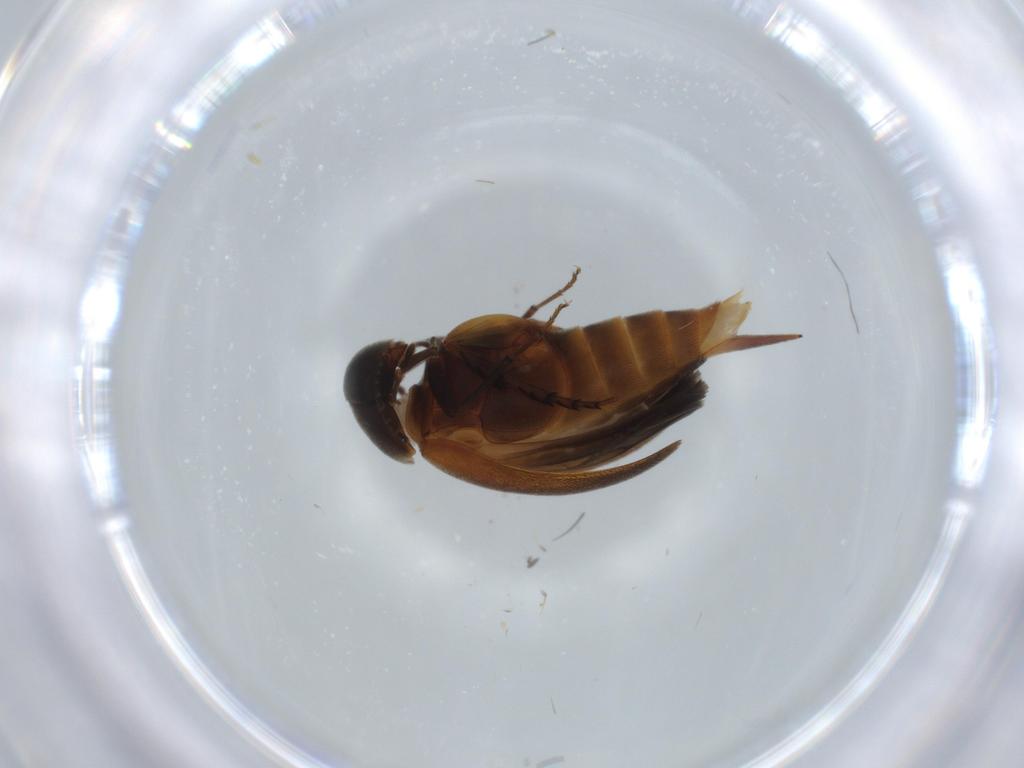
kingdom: Animalia
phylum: Arthropoda
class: Insecta
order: Coleoptera
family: Mordellidae
